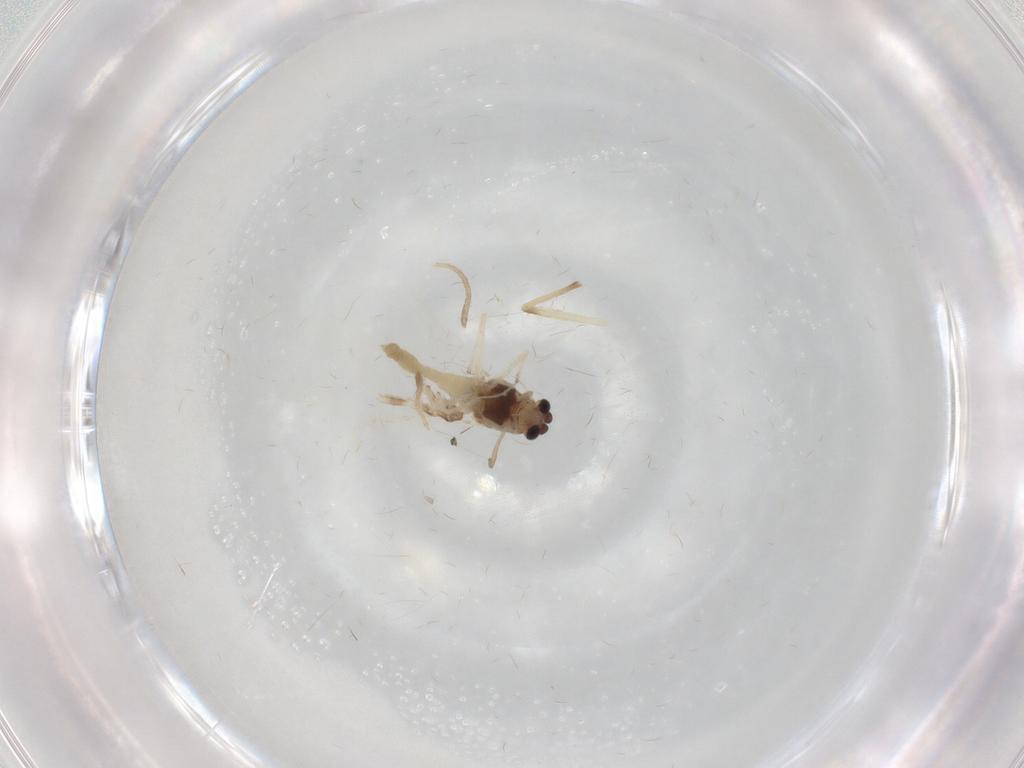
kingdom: Animalia
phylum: Arthropoda
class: Insecta
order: Diptera
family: Chironomidae
